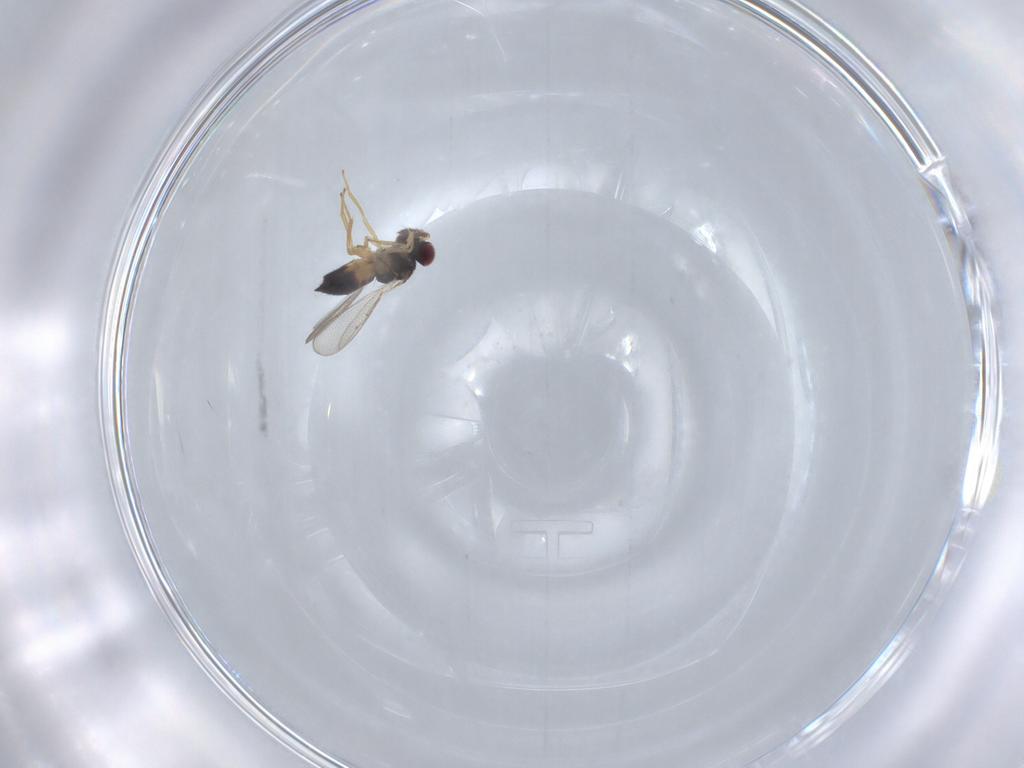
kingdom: Animalia
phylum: Arthropoda
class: Insecta
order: Hymenoptera
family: Eulophidae
